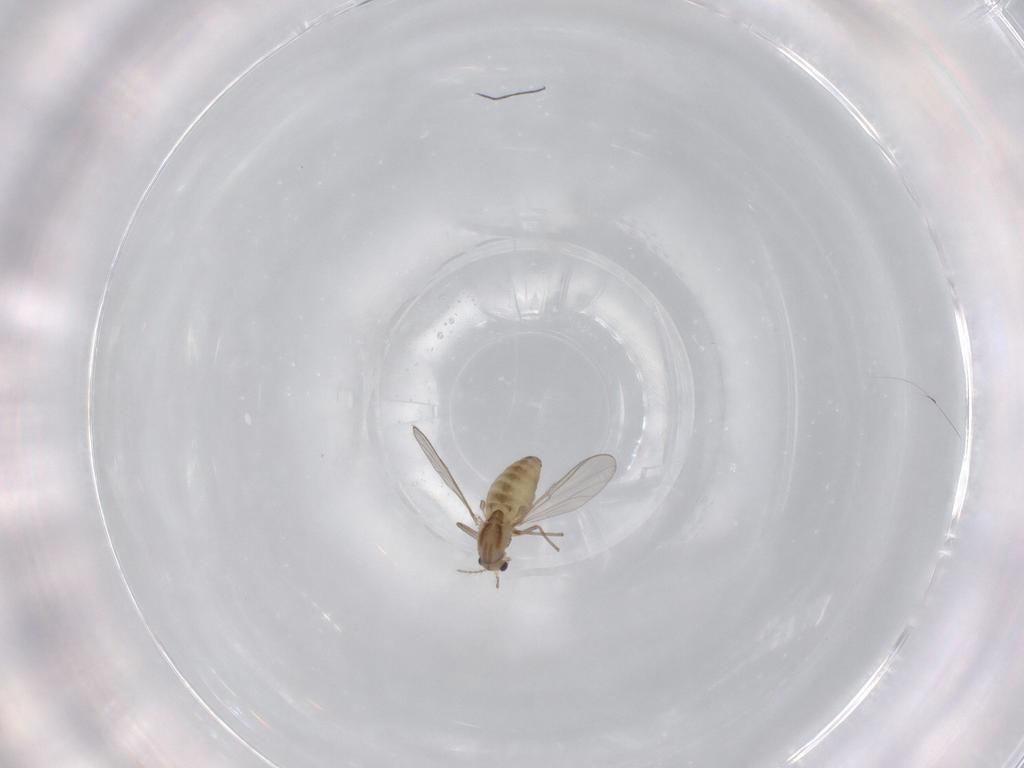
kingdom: Animalia
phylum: Arthropoda
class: Insecta
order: Diptera
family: Chironomidae
